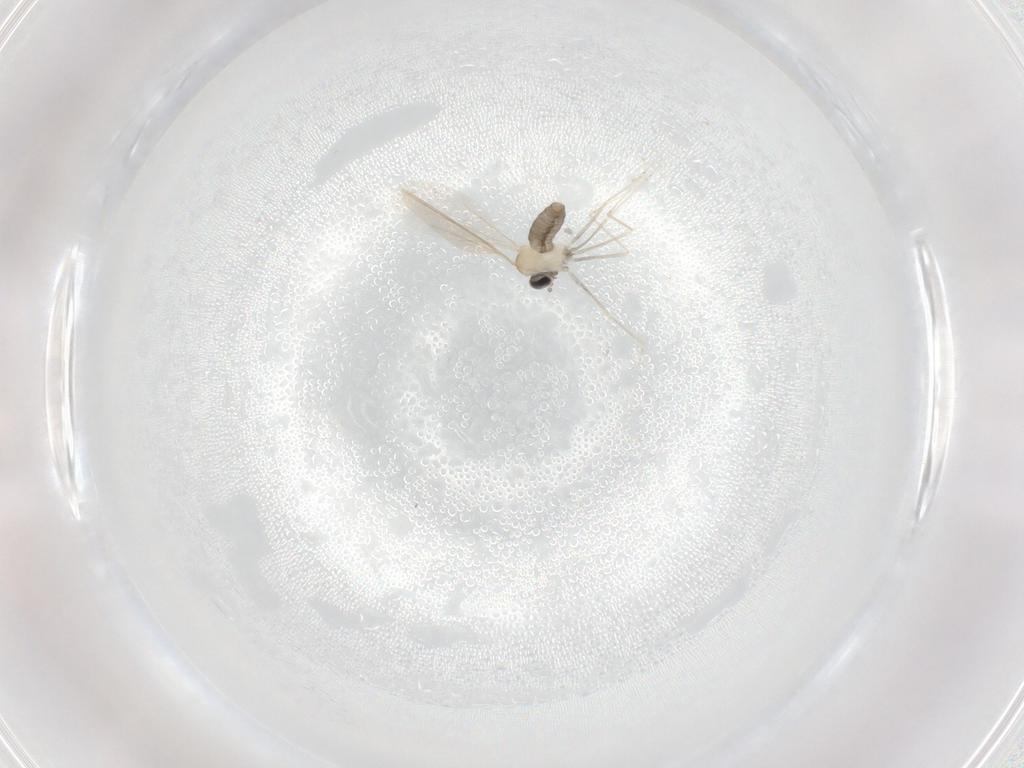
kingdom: Animalia
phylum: Arthropoda
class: Insecta
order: Diptera
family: Cecidomyiidae
